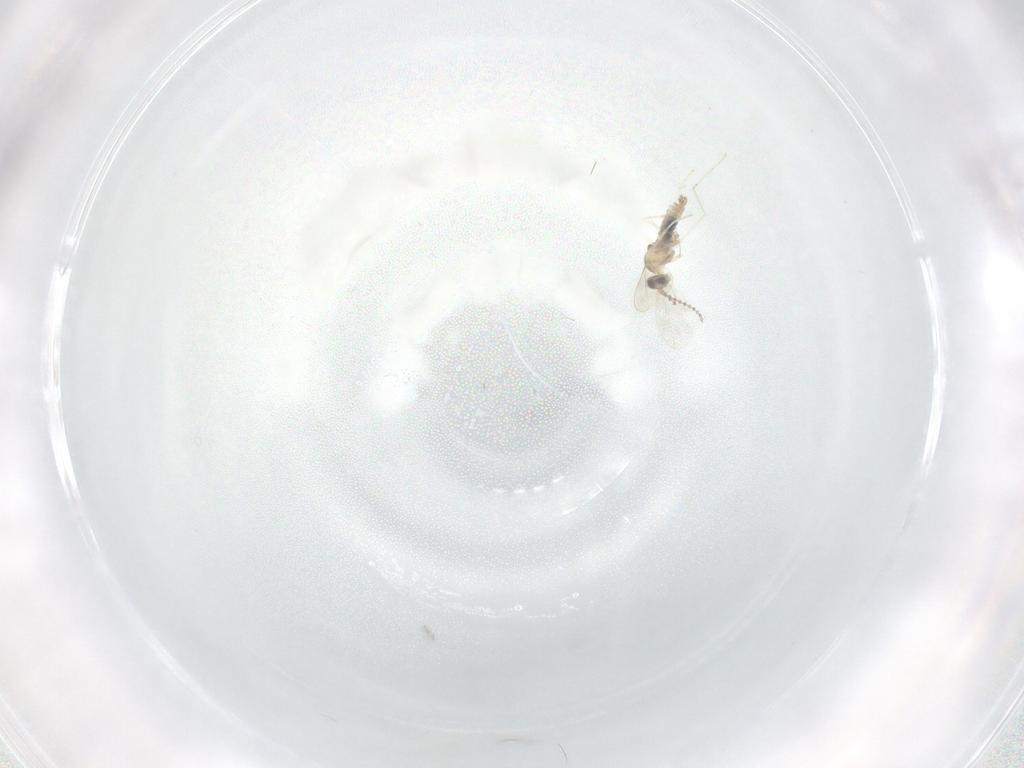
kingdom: Animalia
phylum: Arthropoda
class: Insecta
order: Diptera
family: Cecidomyiidae
